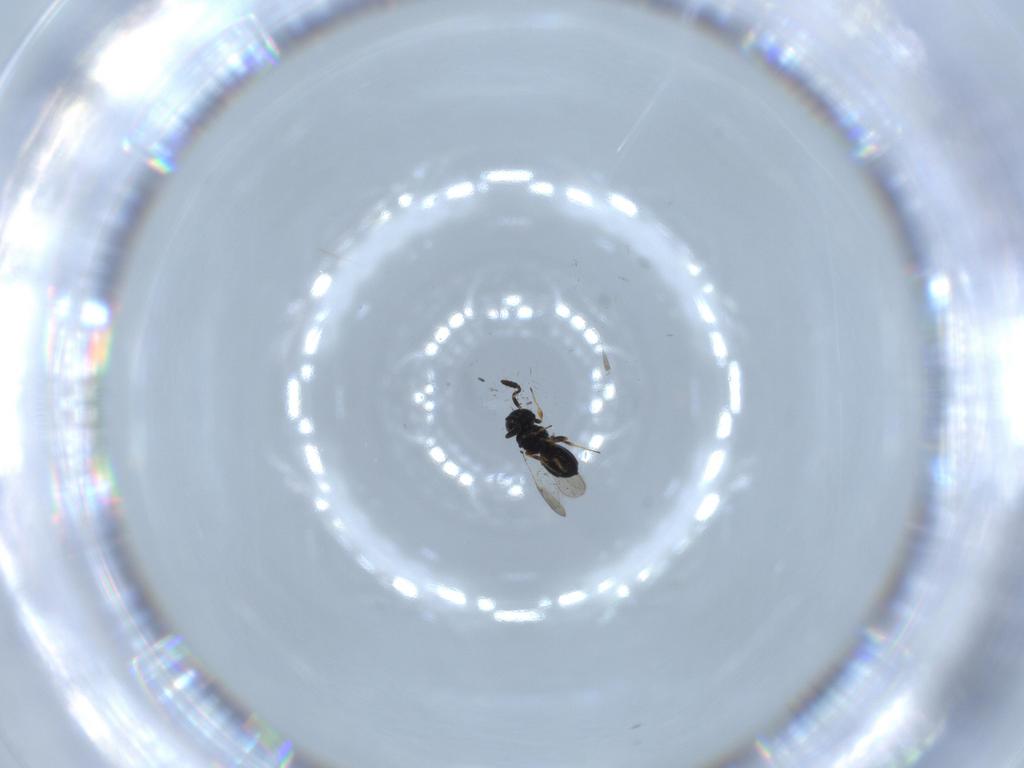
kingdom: Animalia
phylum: Arthropoda
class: Insecta
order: Hymenoptera
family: Scelionidae
